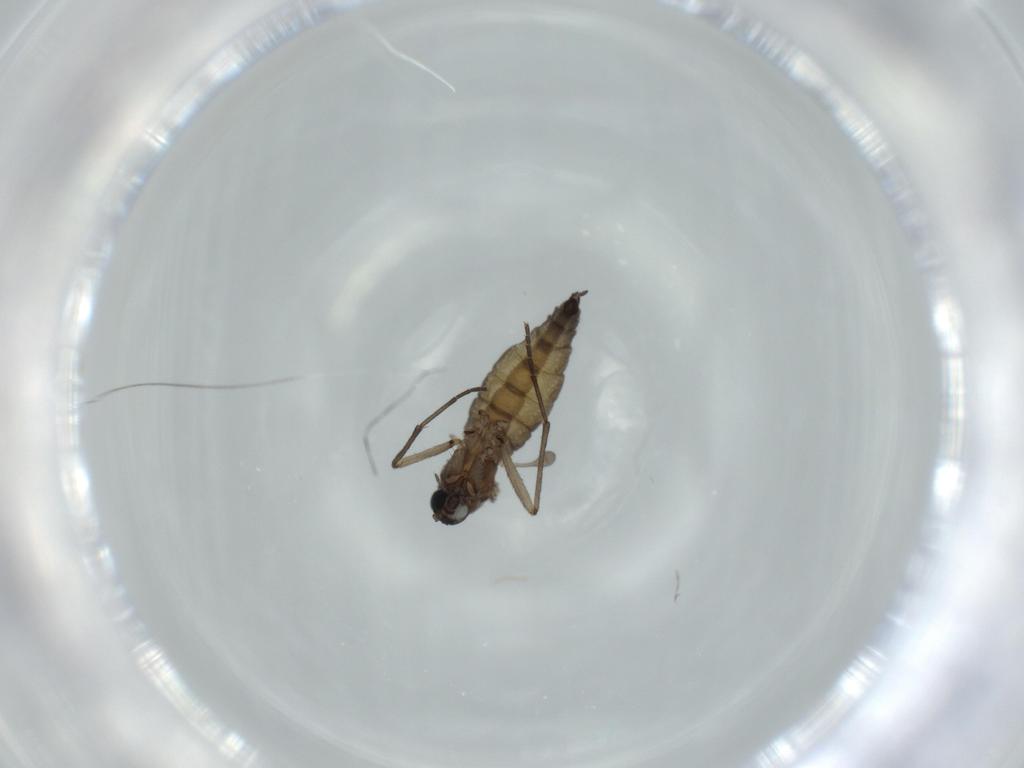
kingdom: Animalia
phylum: Arthropoda
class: Insecta
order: Diptera
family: Sciaridae
